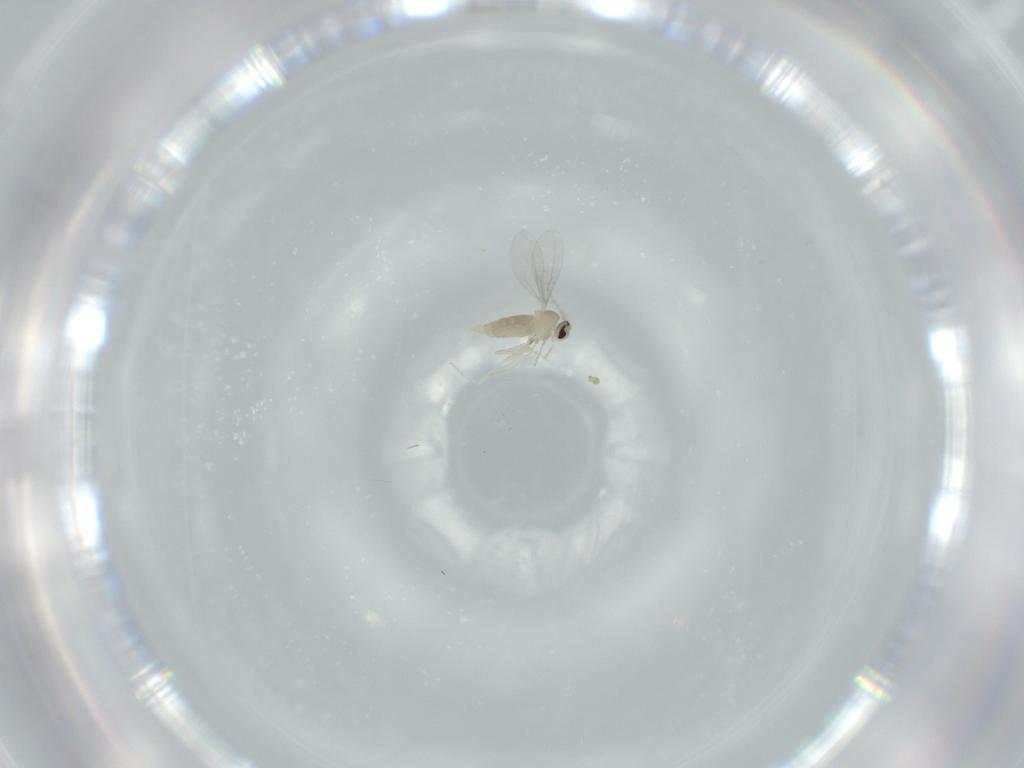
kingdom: Animalia
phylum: Arthropoda
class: Insecta
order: Diptera
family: Cecidomyiidae
